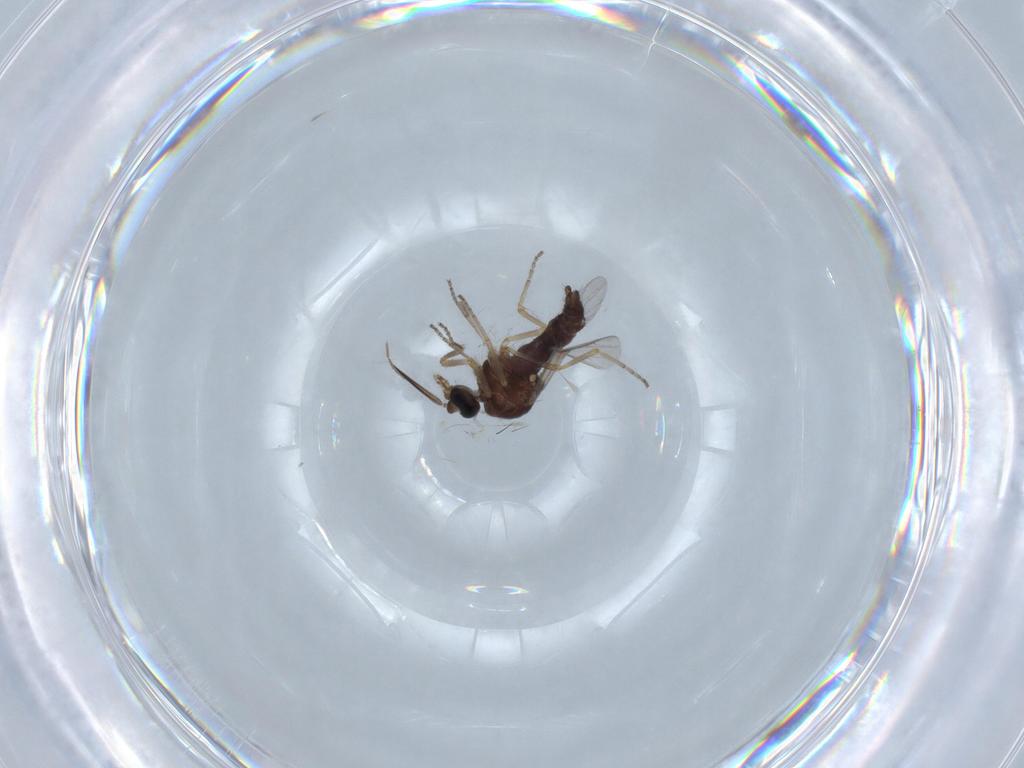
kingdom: Animalia
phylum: Arthropoda
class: Insecta
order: Diptera
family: Ceratopogonidae
